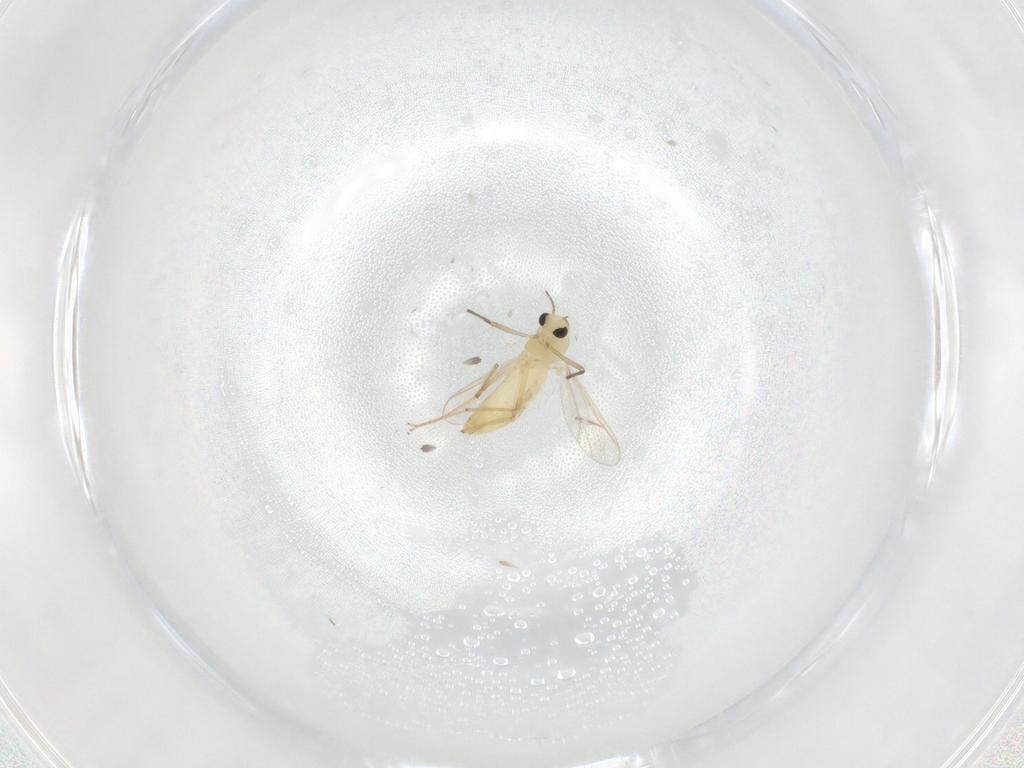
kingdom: Animalia
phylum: Arthropoda
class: Insecta
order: Diptera
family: Chironomidae
